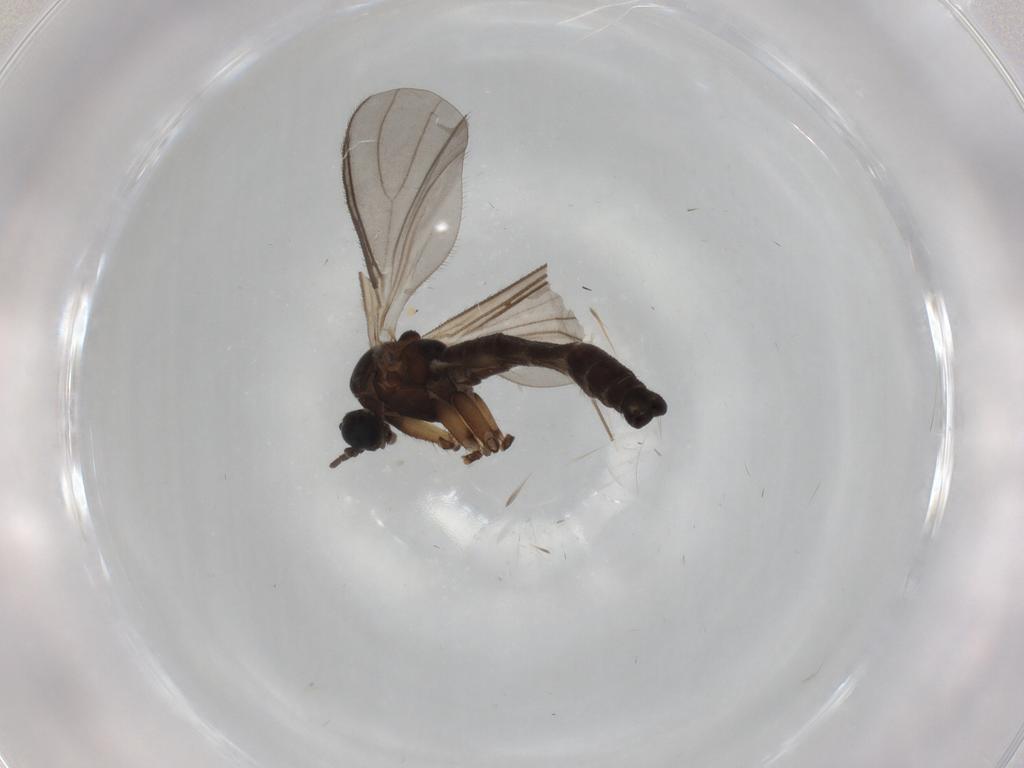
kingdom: Animalia
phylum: Arthropoda
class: Insecta
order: Diptera
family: Sciaridae
